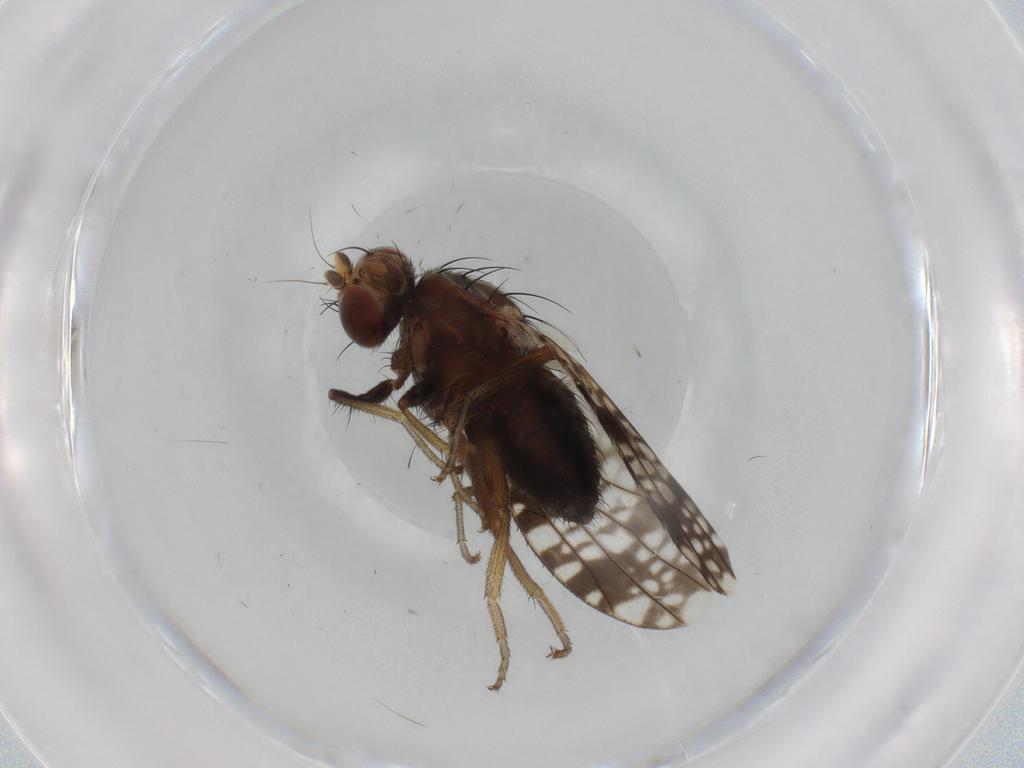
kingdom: Animalia
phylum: Arthropoda
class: Insecta
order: Diptera
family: Tephritidae
